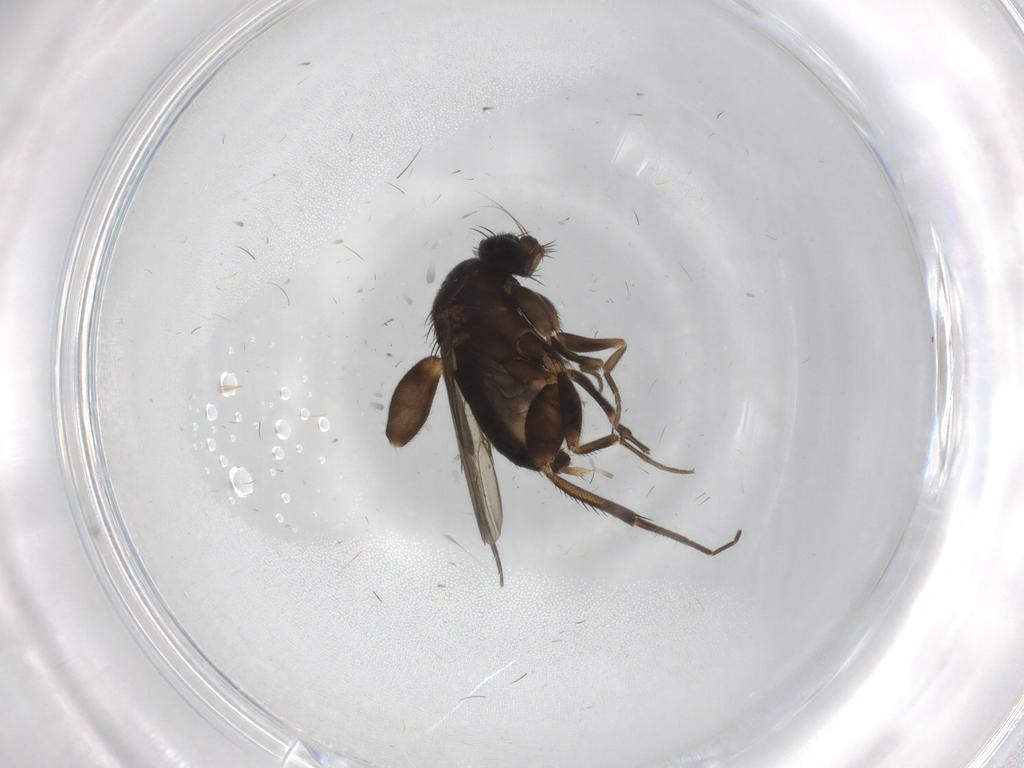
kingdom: Animalia
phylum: Arthropoda
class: Insecta
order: Diptera
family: Phoridae
